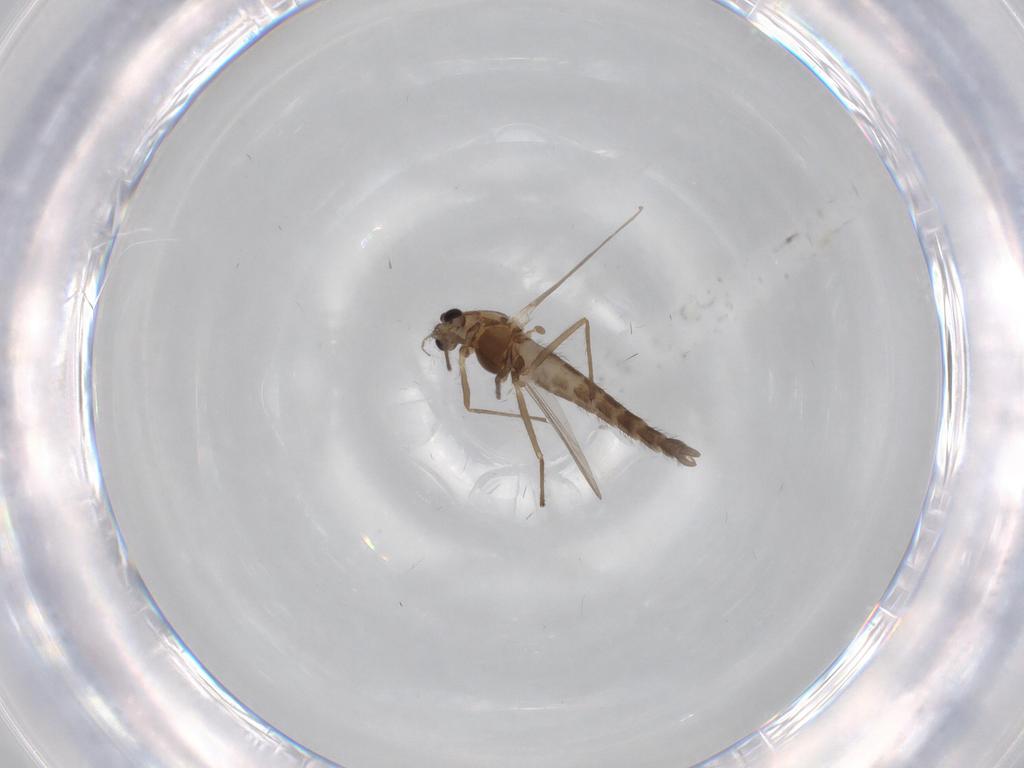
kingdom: Animalia
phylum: Arthropoda
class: Insecta
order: Diptera
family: Chironomidae
